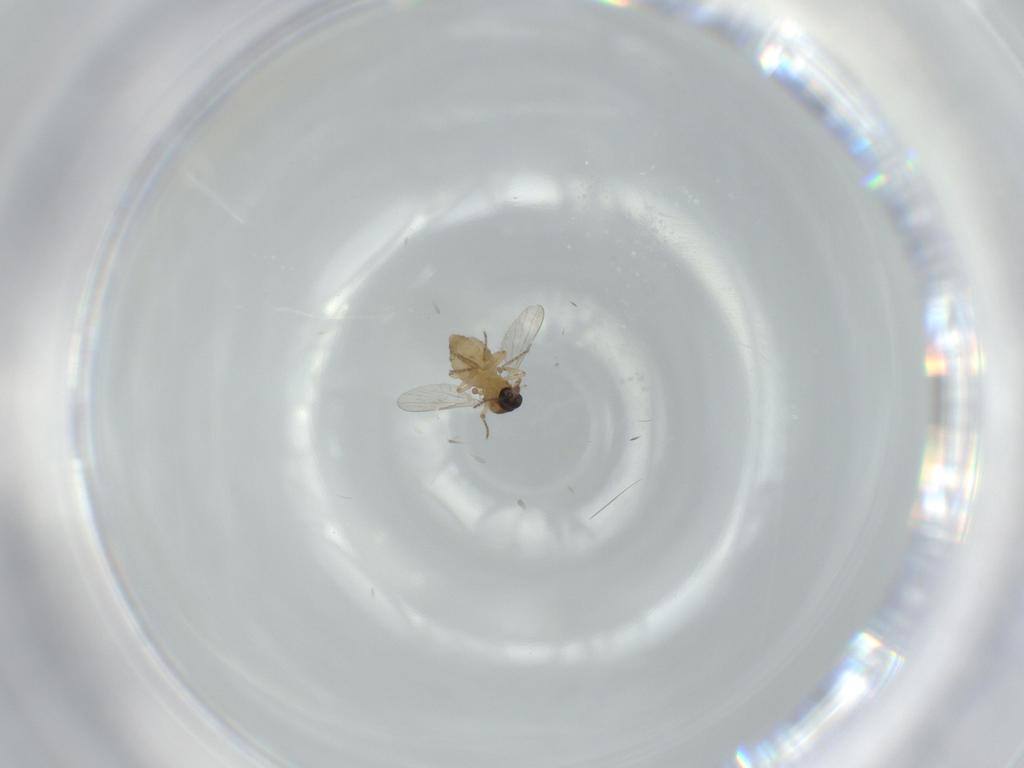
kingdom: Animalia
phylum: Arthropoda
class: Insecta
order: Diptera
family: Ceratopogonidae
